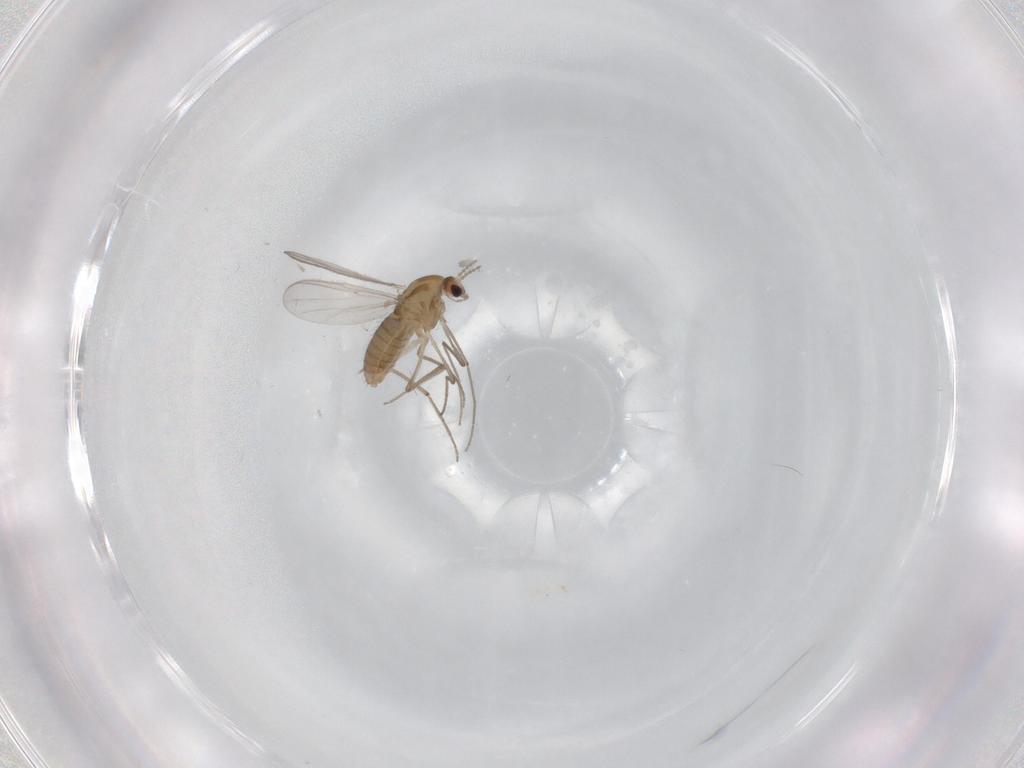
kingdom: Animalia
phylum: Arthropoda
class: Insecta
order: Diptera
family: Chironomidae
